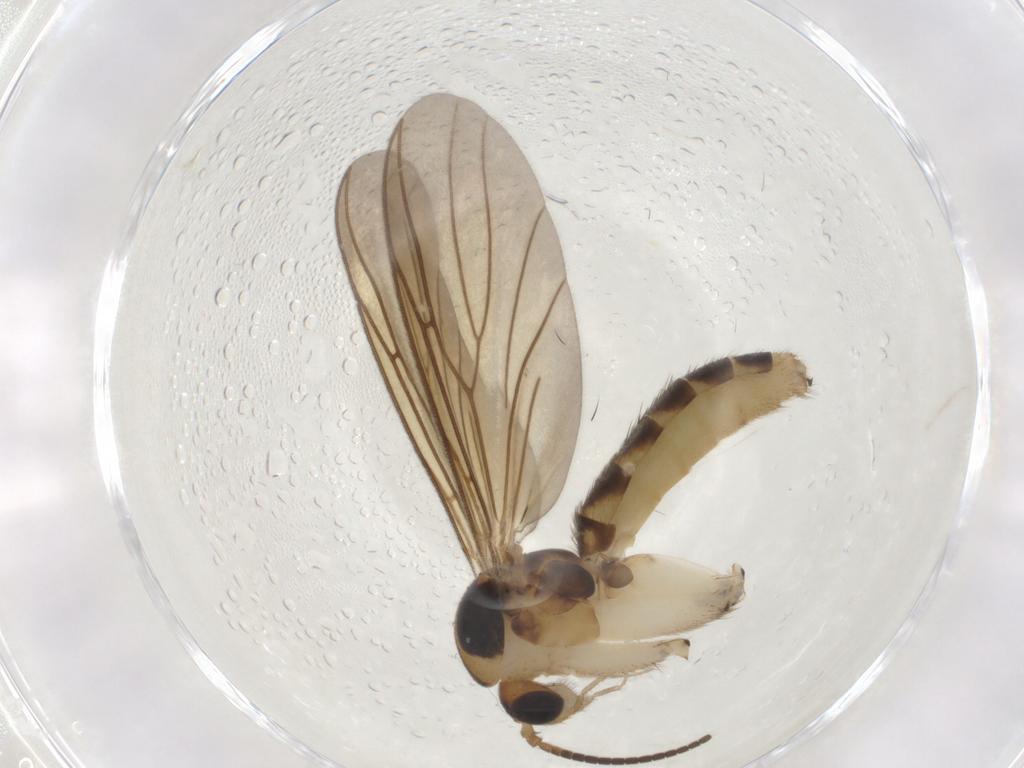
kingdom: Animalia
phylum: Arthropoda
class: Insecta
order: Diptera
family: Mycetophilidae
